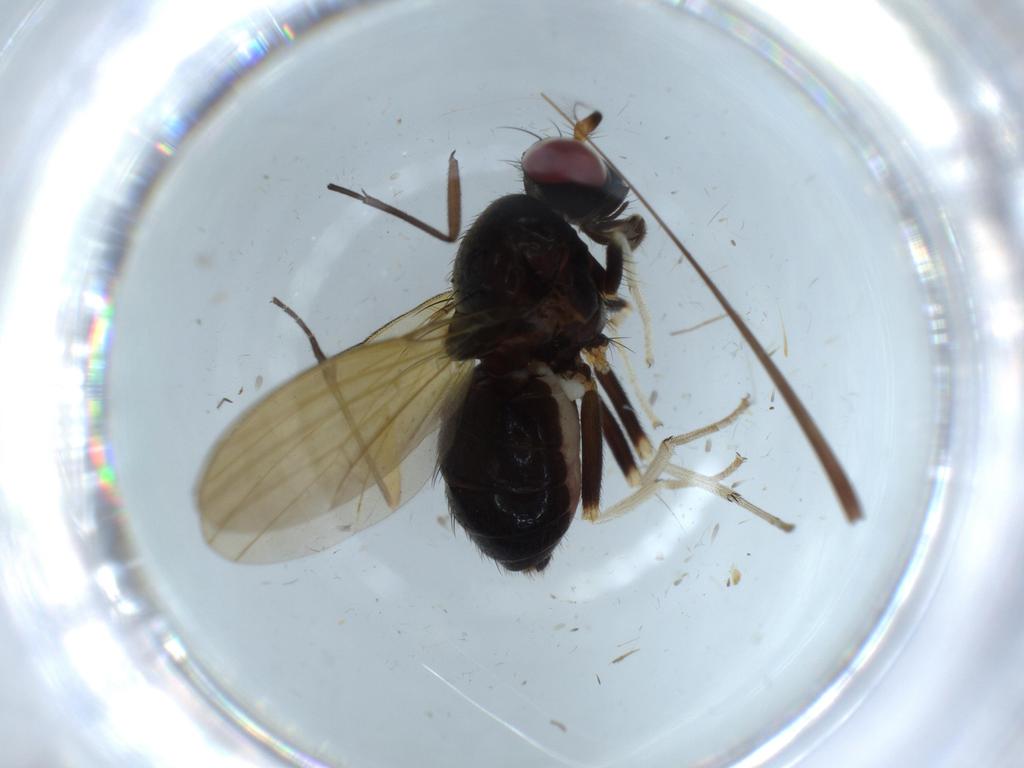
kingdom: Animalia
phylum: Arthropoda
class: Insecta
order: Diptera
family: Mycetophilidae
